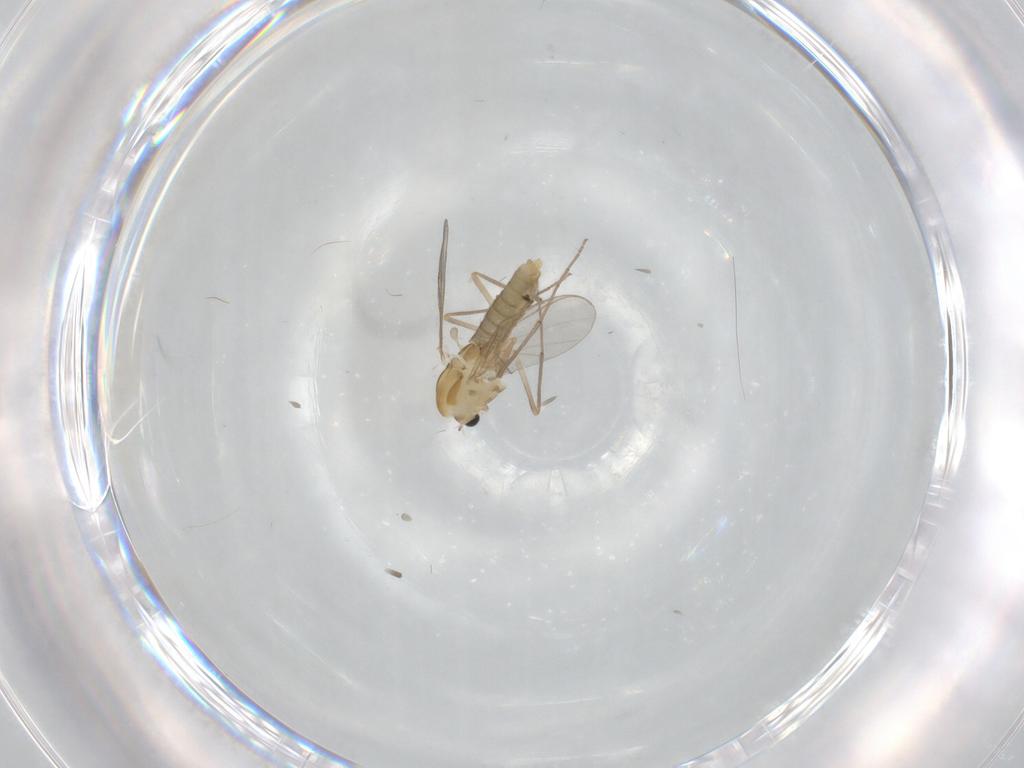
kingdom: Animalia
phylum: Arthropoda
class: Insecta
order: Diptera
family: Chironomidae
